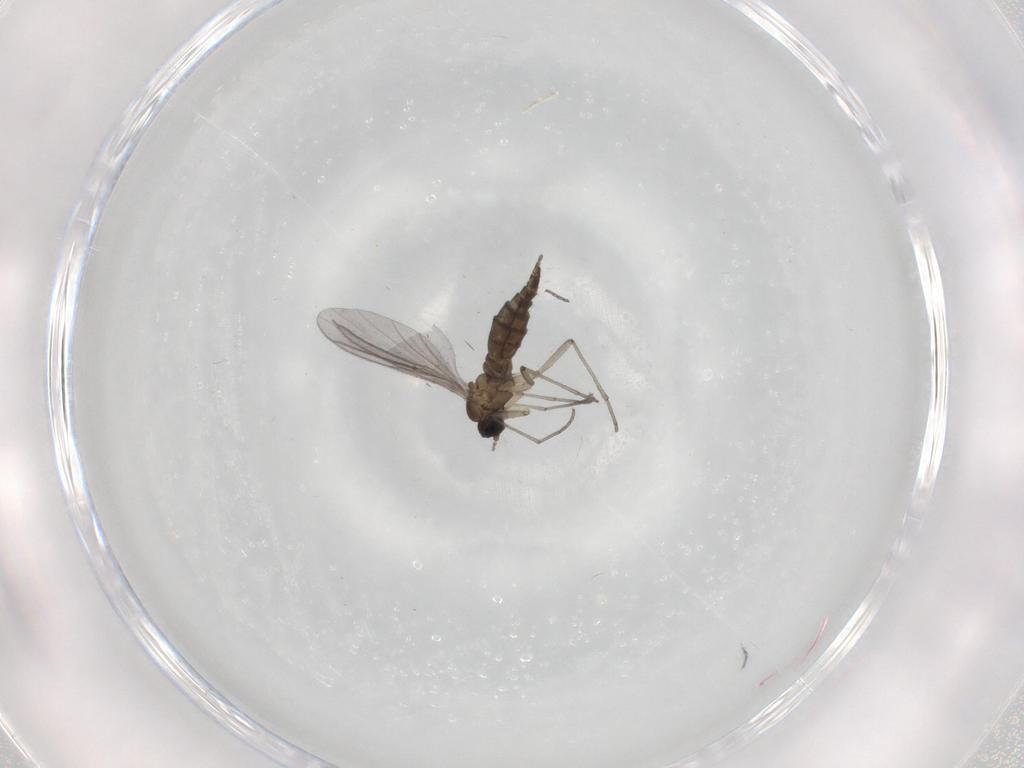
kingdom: Animalia
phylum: Arthropoda
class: Insecta
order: Diptera
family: Sciaridae
